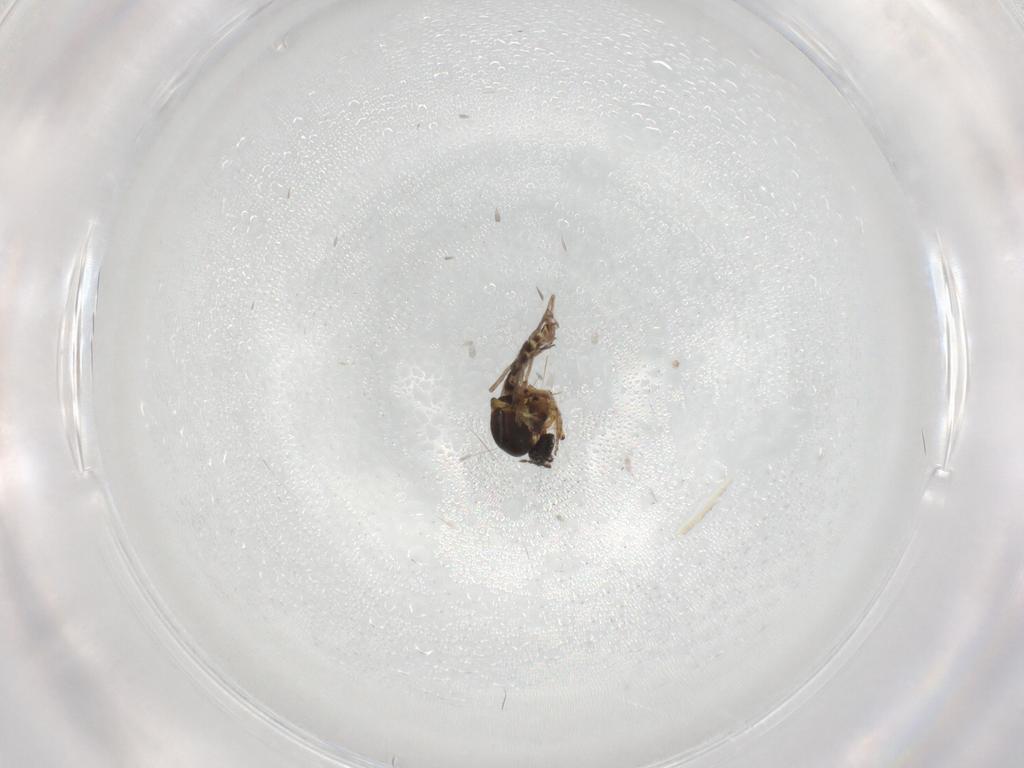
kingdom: Animalia
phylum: Arthropoda
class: Insecta
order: Diptera
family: Ceratopogonidae
